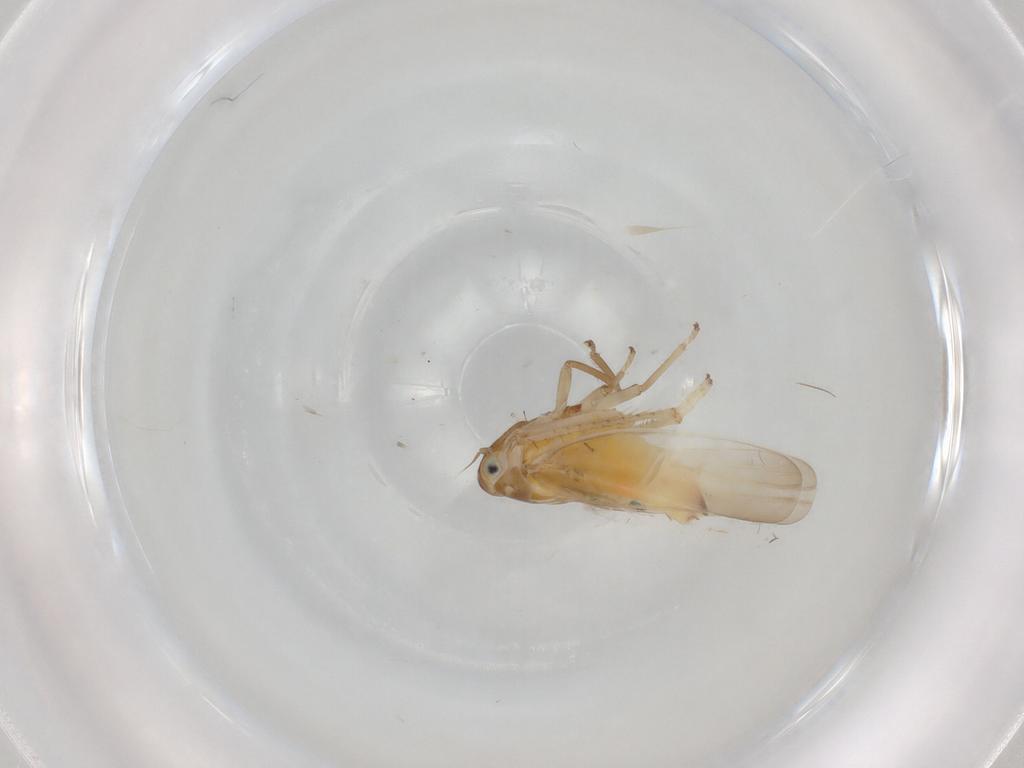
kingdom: Animalia
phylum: Arthropoda
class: Insecta
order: Hemiptera
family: Cicadellidae
